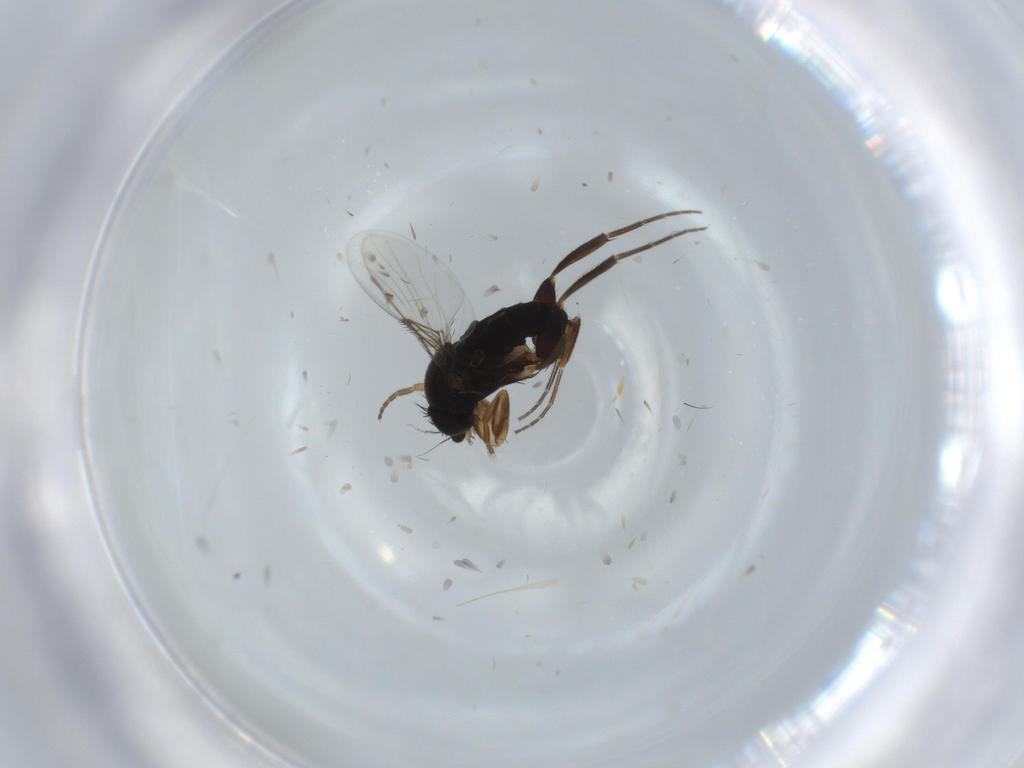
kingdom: Animalia
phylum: Arthropoda
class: Insecta
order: Diptera
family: Phoridae
